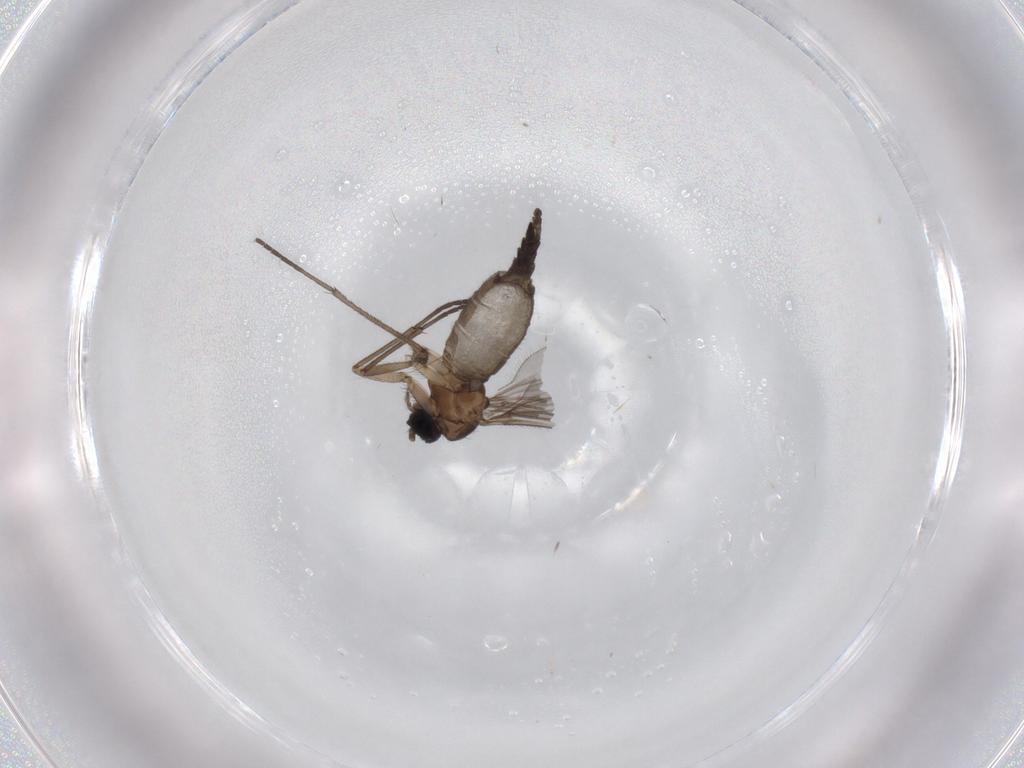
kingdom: Animalia
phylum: Arthropoda
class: Insecta
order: Diptera
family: Sciaridae
